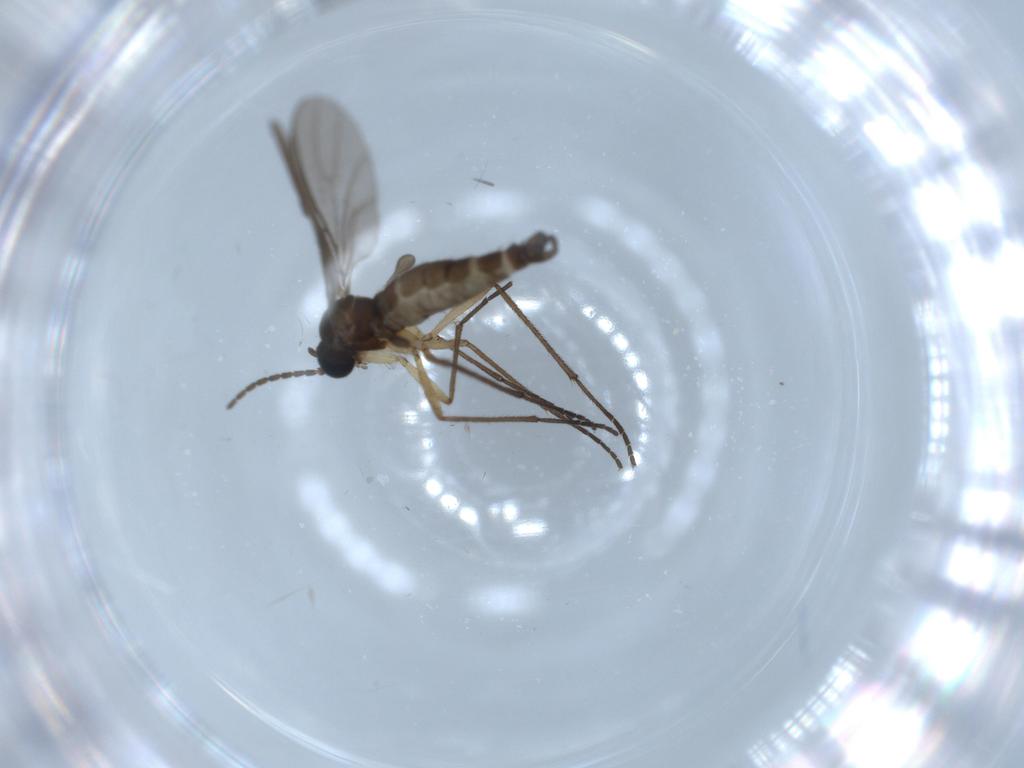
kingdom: Animalia
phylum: Arthropoda
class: Insecta
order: Diptera
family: Sciaridae
